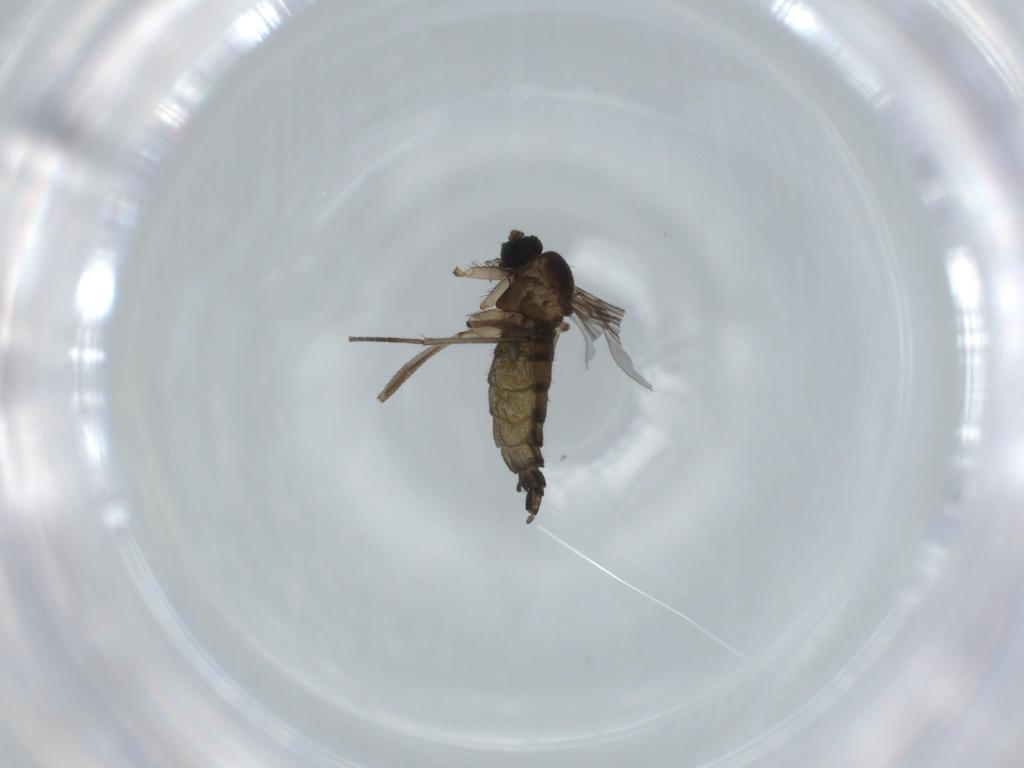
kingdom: Animalia
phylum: Arthropoda
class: Insecta
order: Diptera
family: Sciaridae
